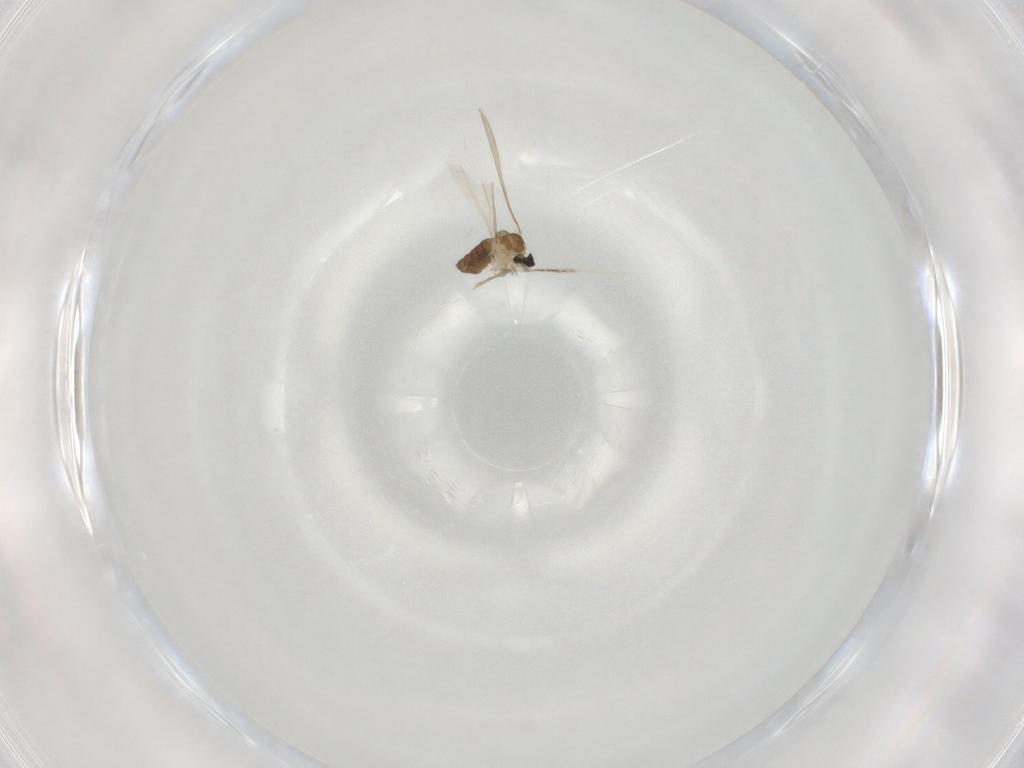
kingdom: Animalia
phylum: Arthropoda
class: Insecta
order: Diptera
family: Cecidomyiidae
